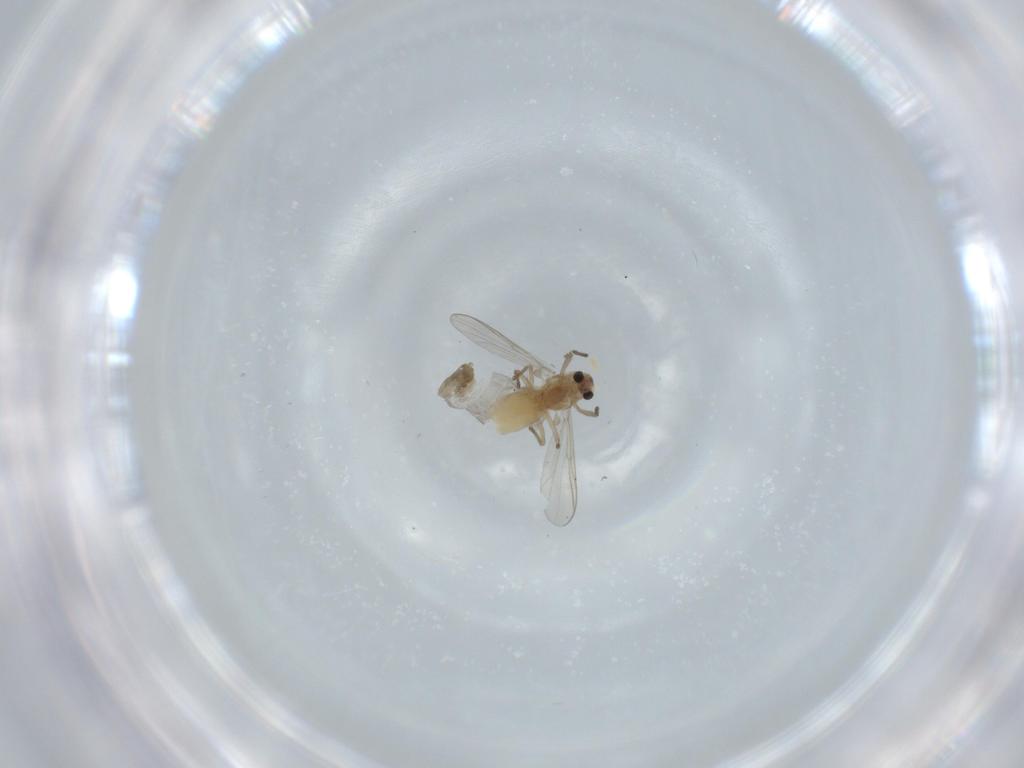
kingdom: Animalia
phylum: Arthropoda
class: Insecta
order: Diptera
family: Chironomidae
